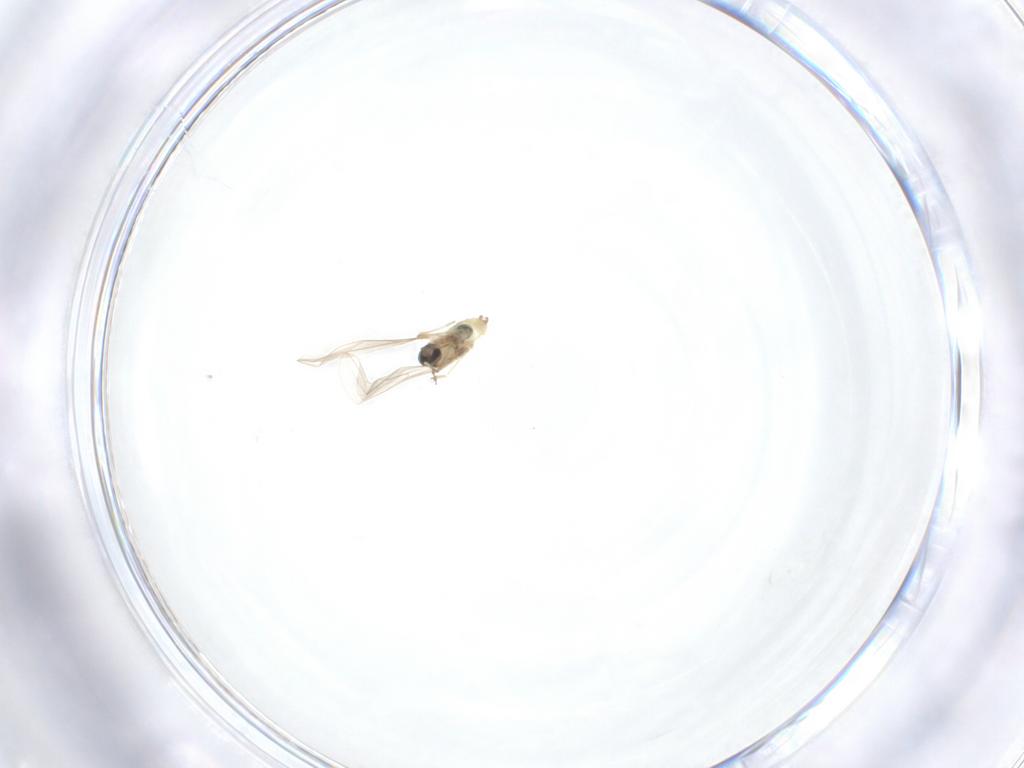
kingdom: Animalia
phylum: Arthropoda
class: Insecta
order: Diptera
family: Cecidomyiidae
